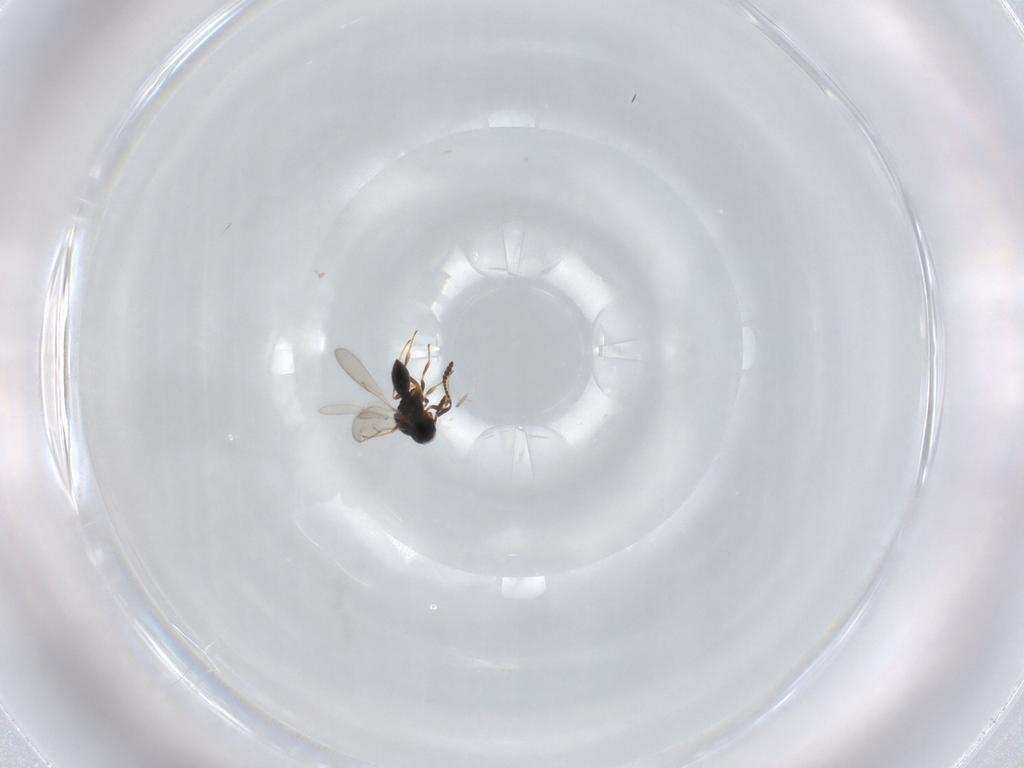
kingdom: Animalia
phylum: Arthropoda
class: Insecta
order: Hymenoptera
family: Scelionidae
